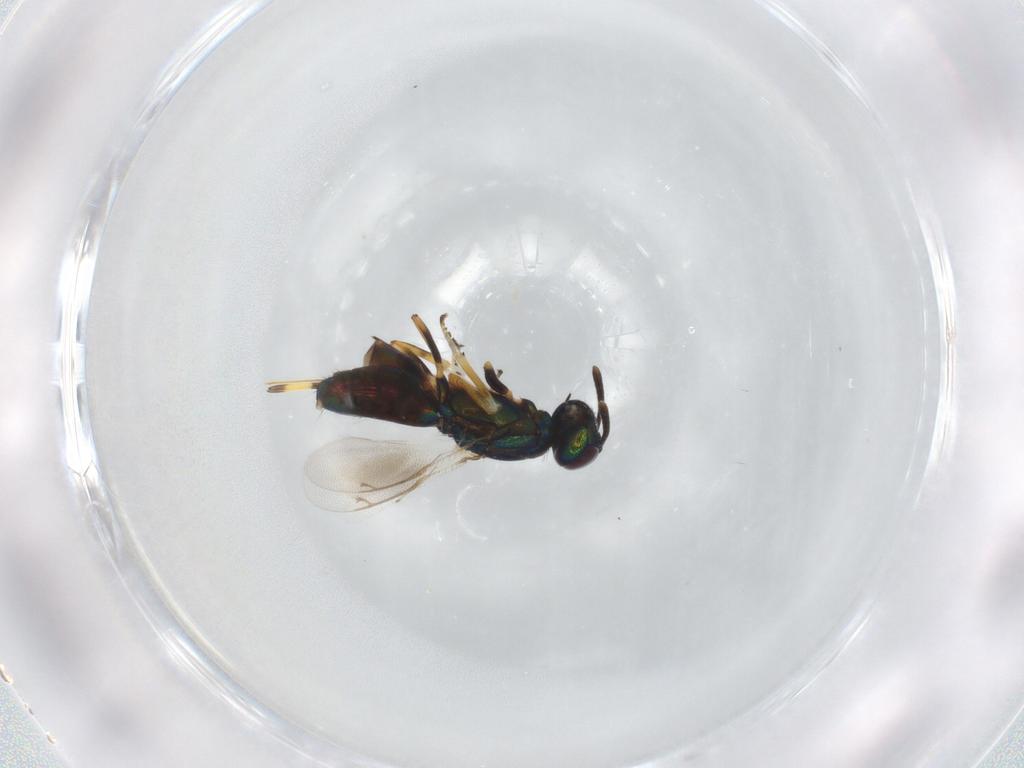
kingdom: Animalia
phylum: Arthropoda
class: Insecta
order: Hymenoptera
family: Eupelmidae
